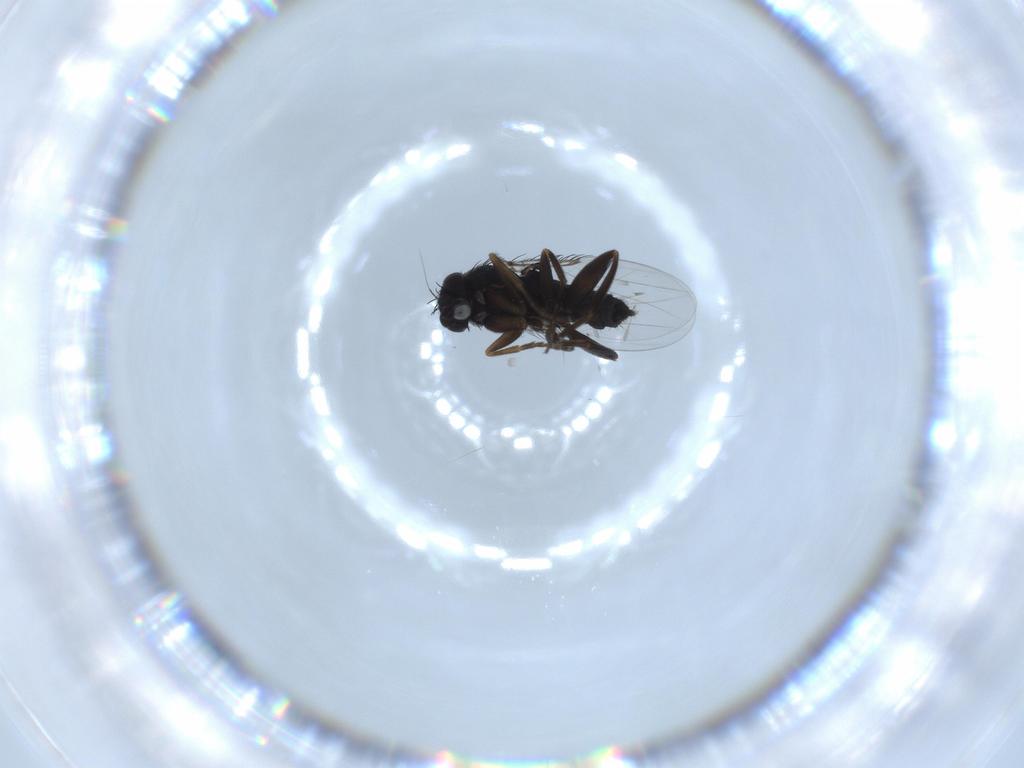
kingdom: Animalia
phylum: Arthropoda
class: Insecta
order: Diptera
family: Phoridae
